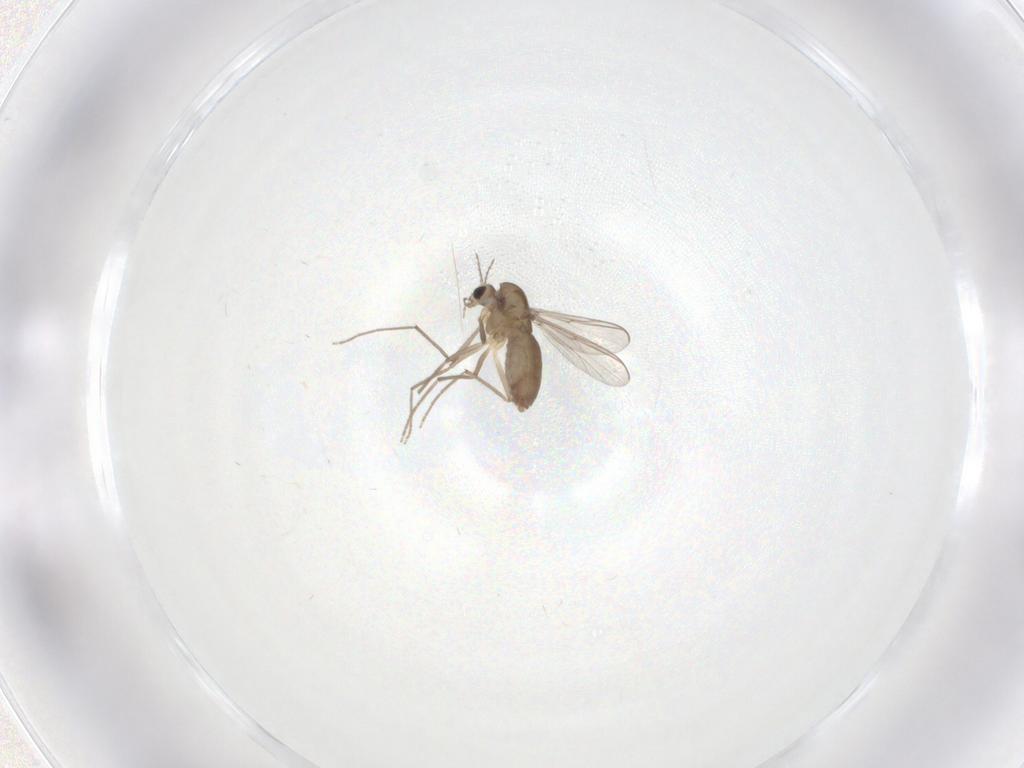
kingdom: Animalia
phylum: Arthropoda
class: Insecta
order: Diptera
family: Chironomidae
